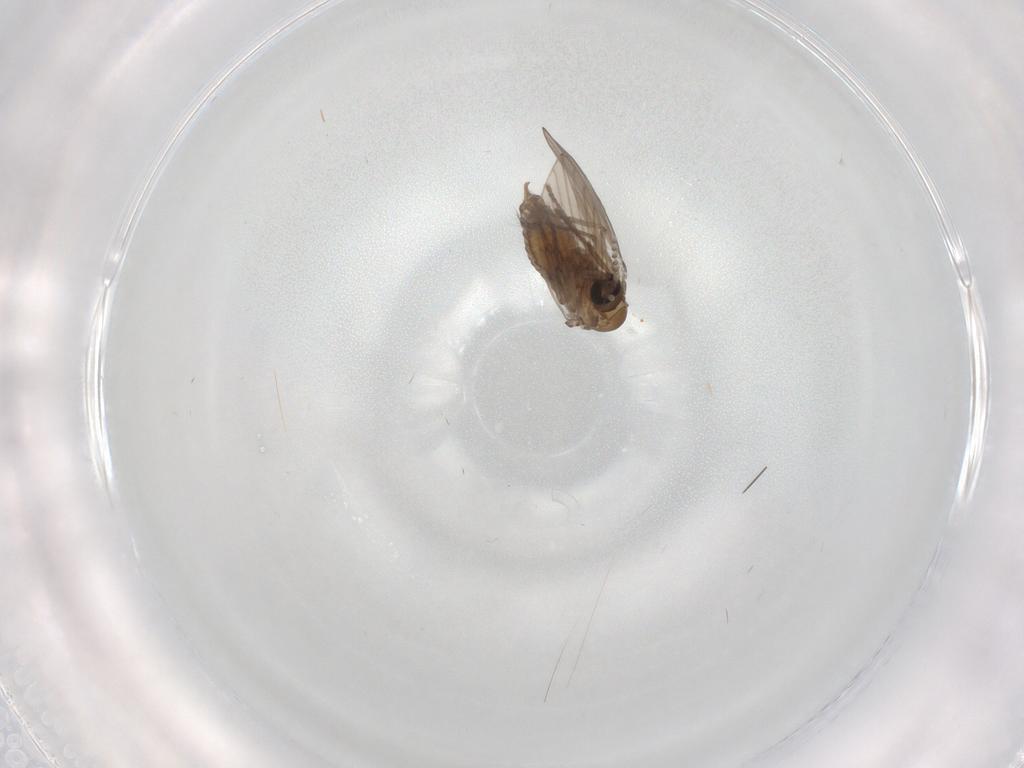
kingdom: Animalia
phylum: Arthropoda
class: Insecta
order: Diptera
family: Psychodidae
